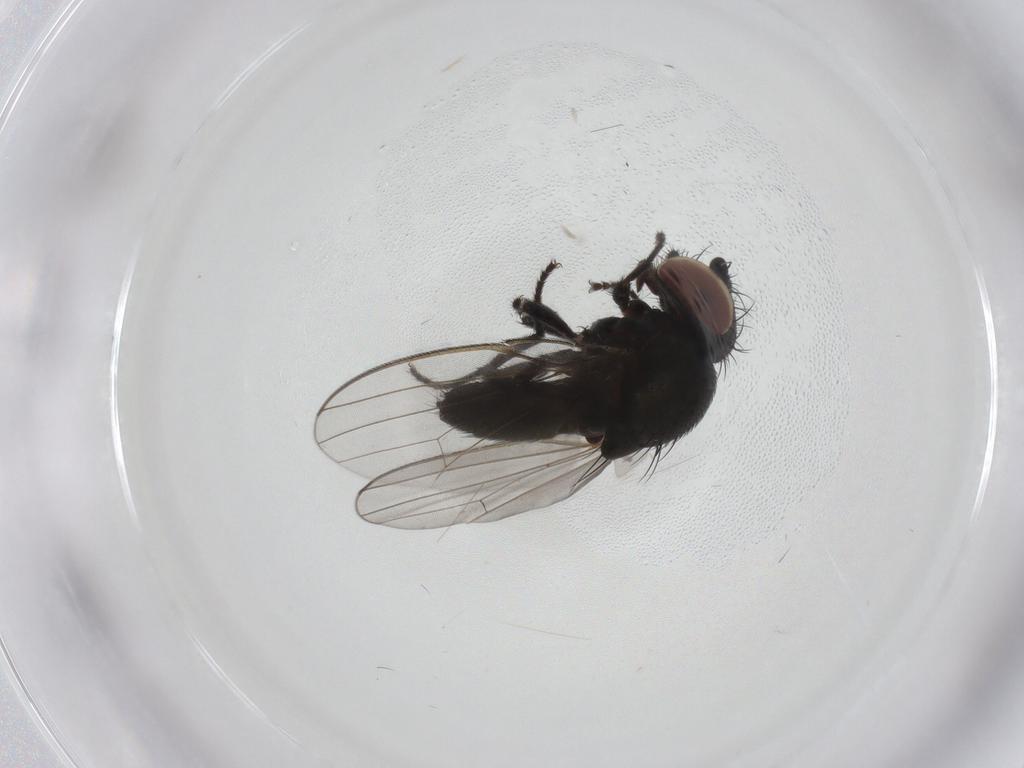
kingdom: Animalia
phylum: Arthropoda
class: Insecta
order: Diptera
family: Milichiidae
